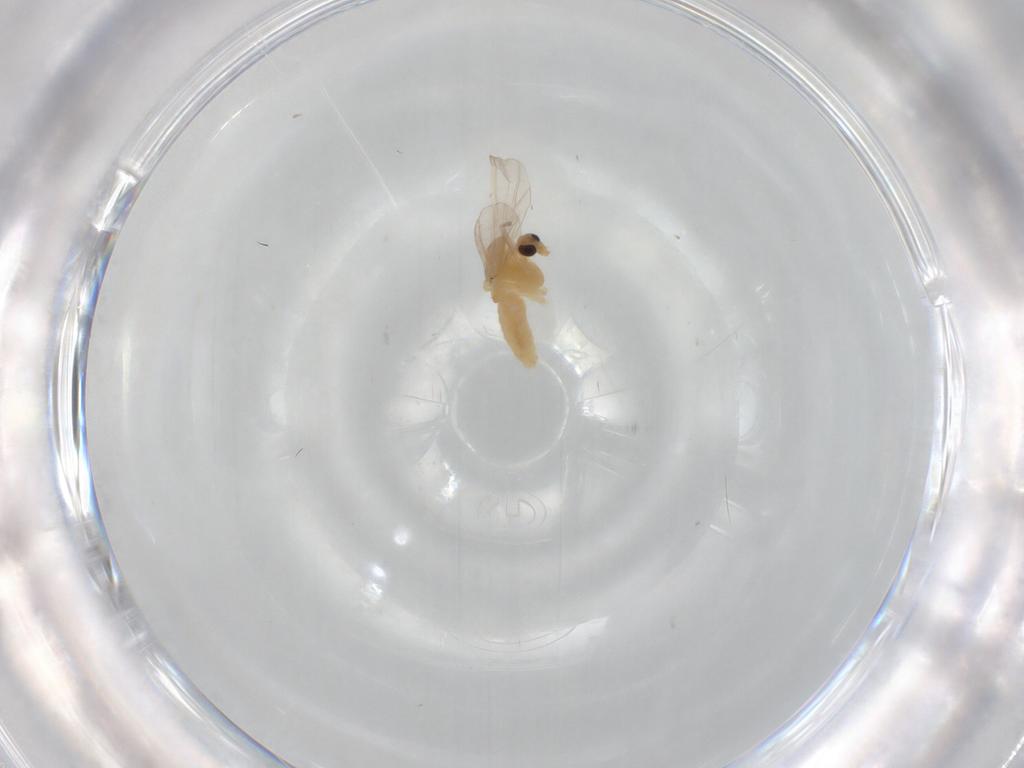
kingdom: Animalia
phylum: Arthropoda
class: Insecta
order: Diptera
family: Chironomidae
